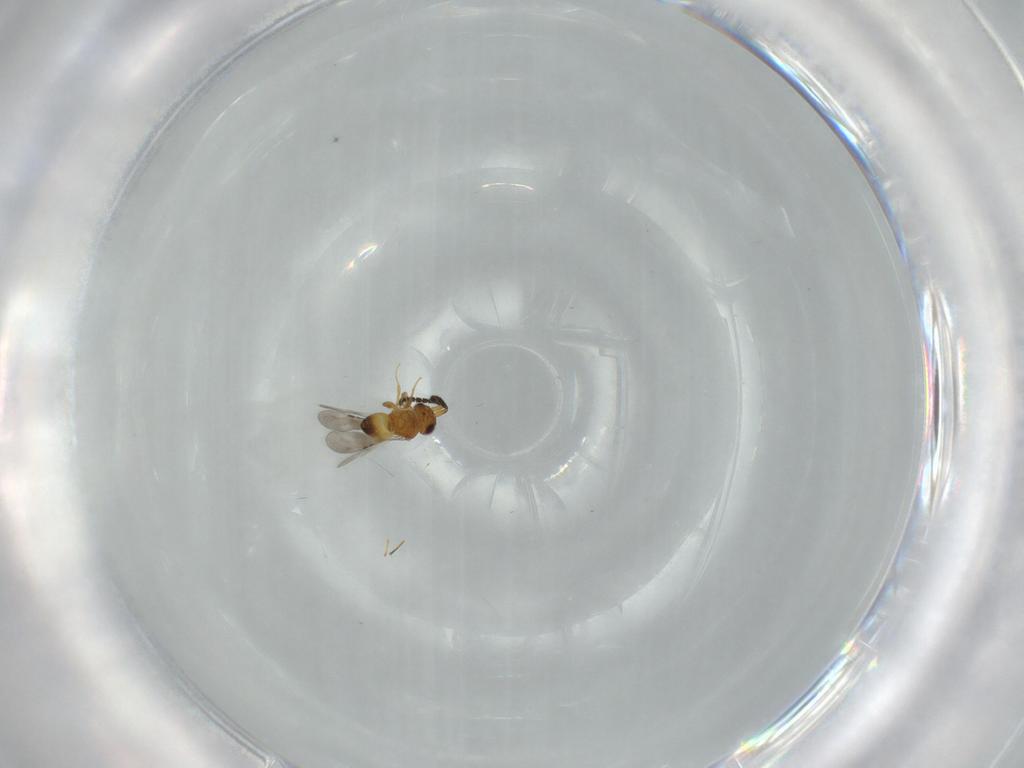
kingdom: Animalia
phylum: Arthropoda
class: Insecta
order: Hymenoptera
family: Figitidae
